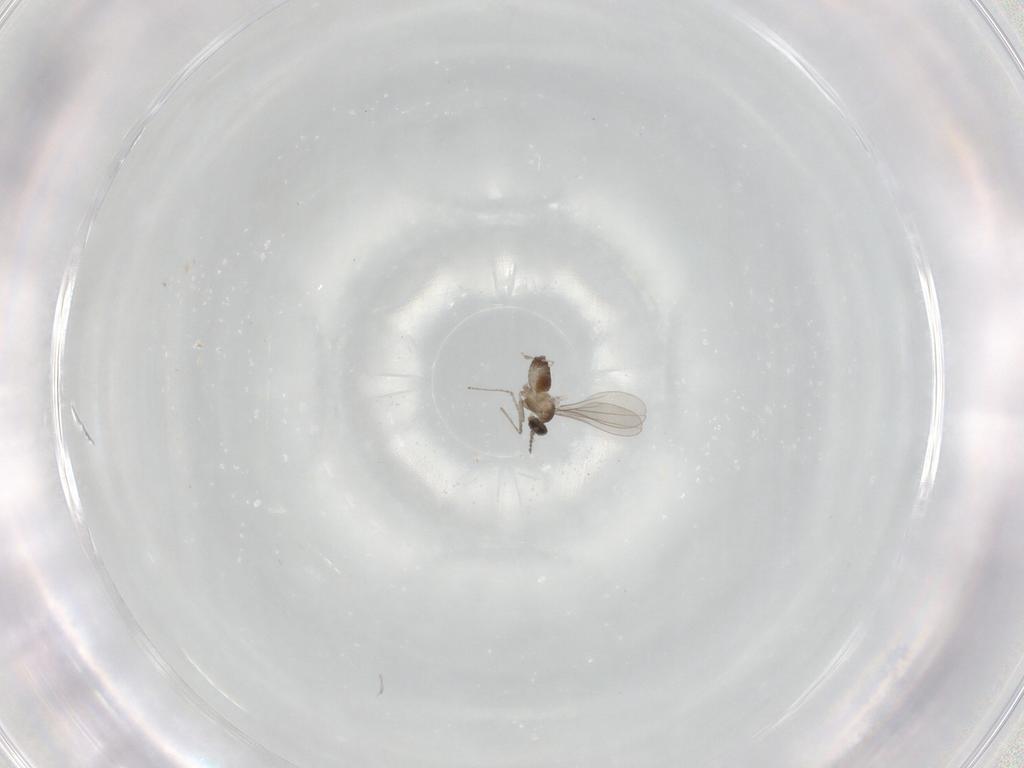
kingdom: Animalia
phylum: Arthropoda
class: Insecta
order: Diptera
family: Cecidomyiidae
